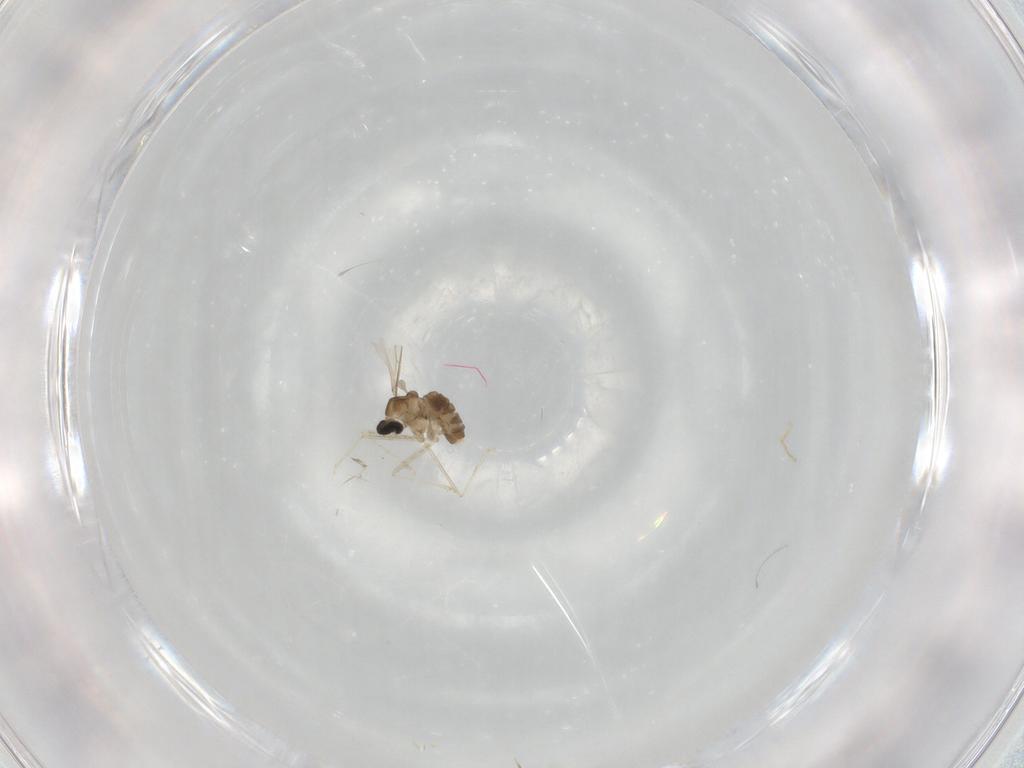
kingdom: Animalia
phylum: Arthropoda
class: Insecta
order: Diptera
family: Chironomidae
